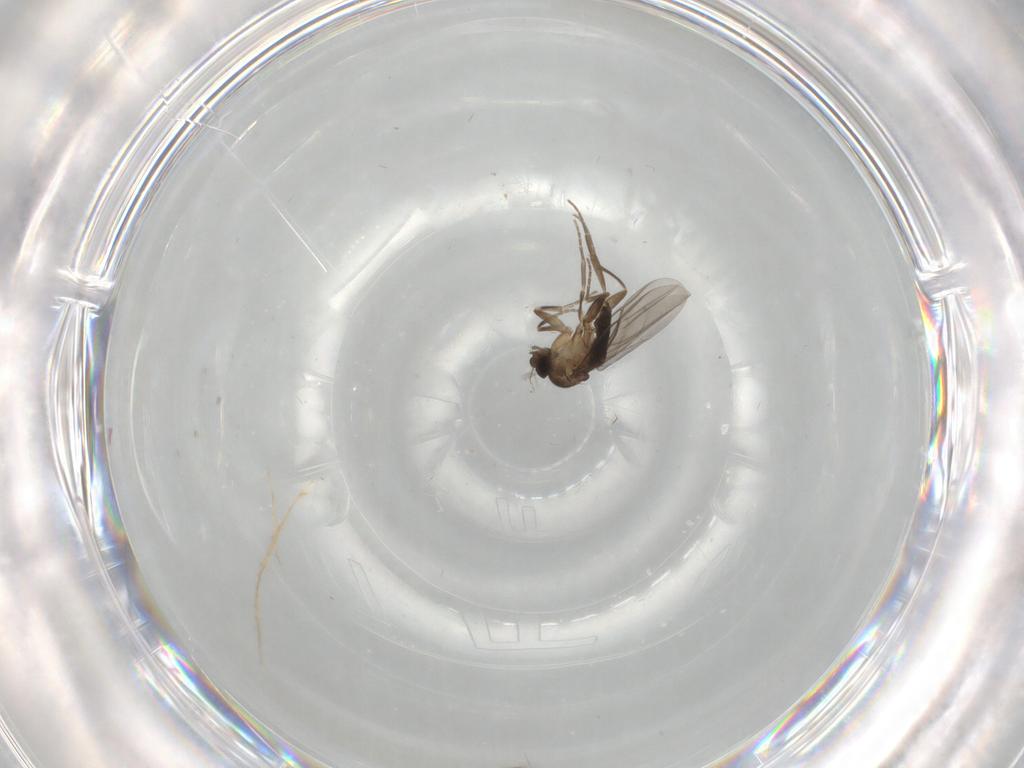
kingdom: Animalia
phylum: Arthropoda
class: Insecta
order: Diptera
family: Phoridae
